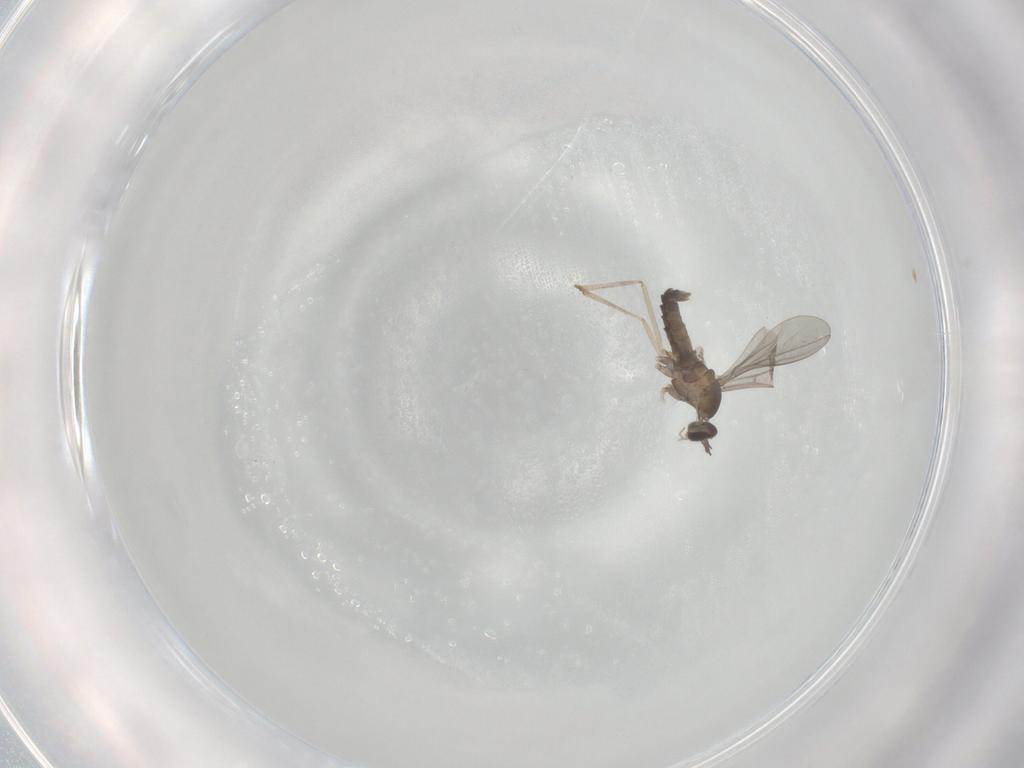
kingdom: Animalia
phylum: Arthropoda
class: Insecta
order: Diptera
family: Cecidomyiidae
